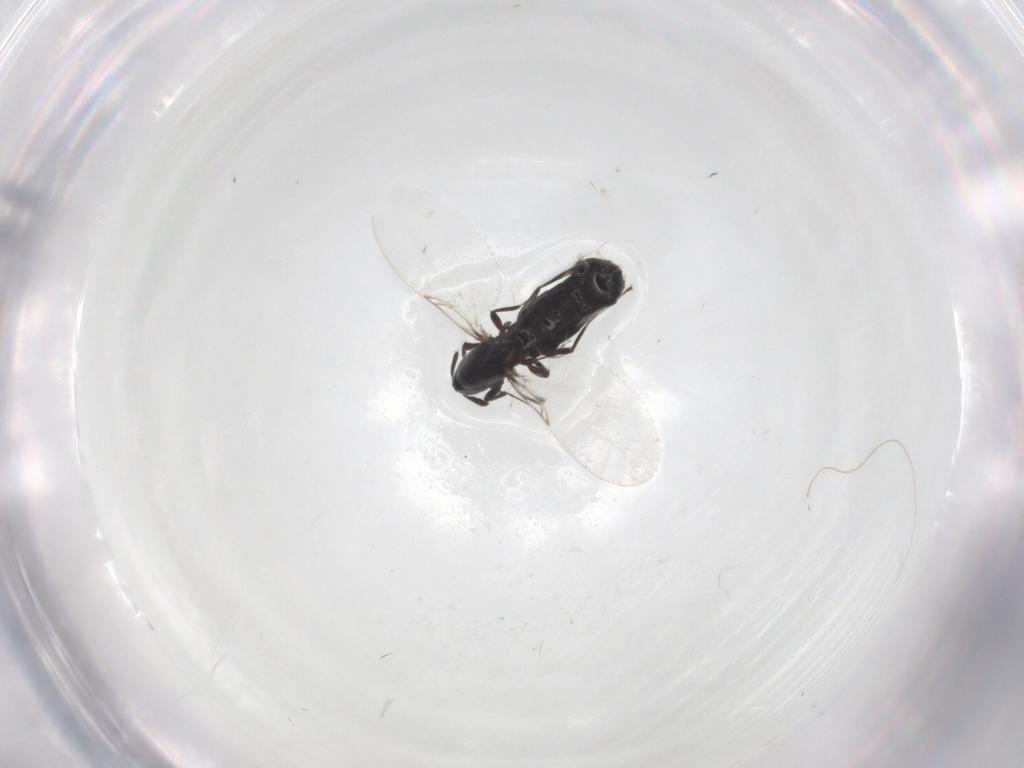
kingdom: Animalia
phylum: Arthropoda
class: Insecta
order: Diptera
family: Scatopsidae
